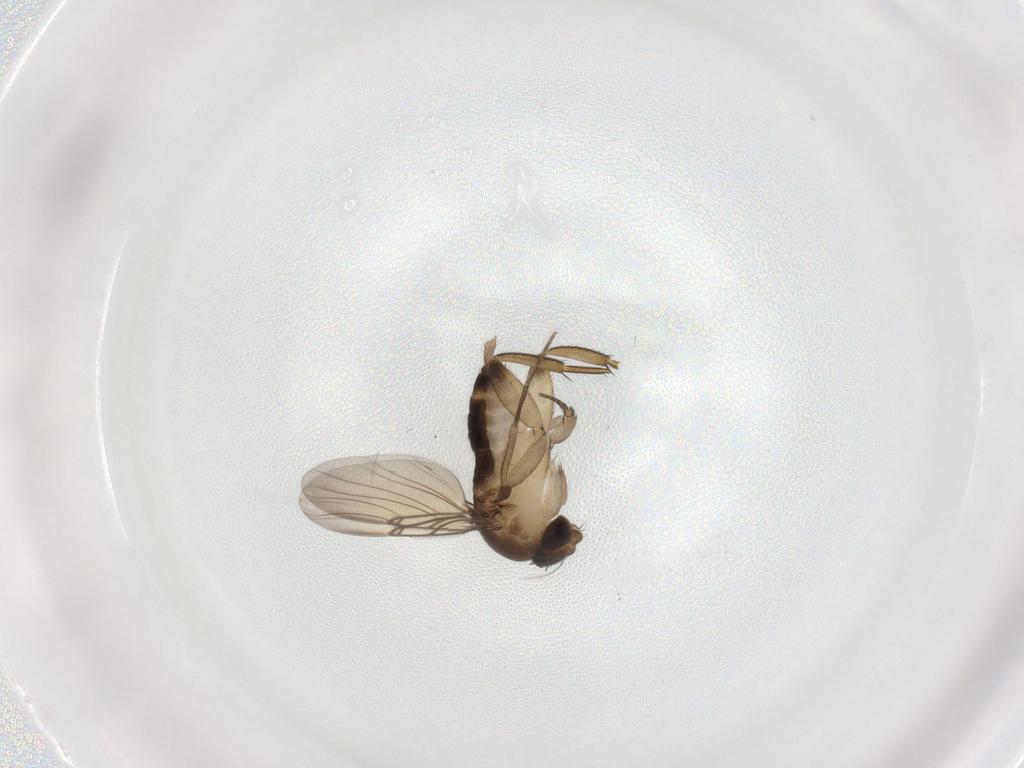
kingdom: Animalia
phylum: Arthropoda
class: Insecta
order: Diptera
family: Phoridae
